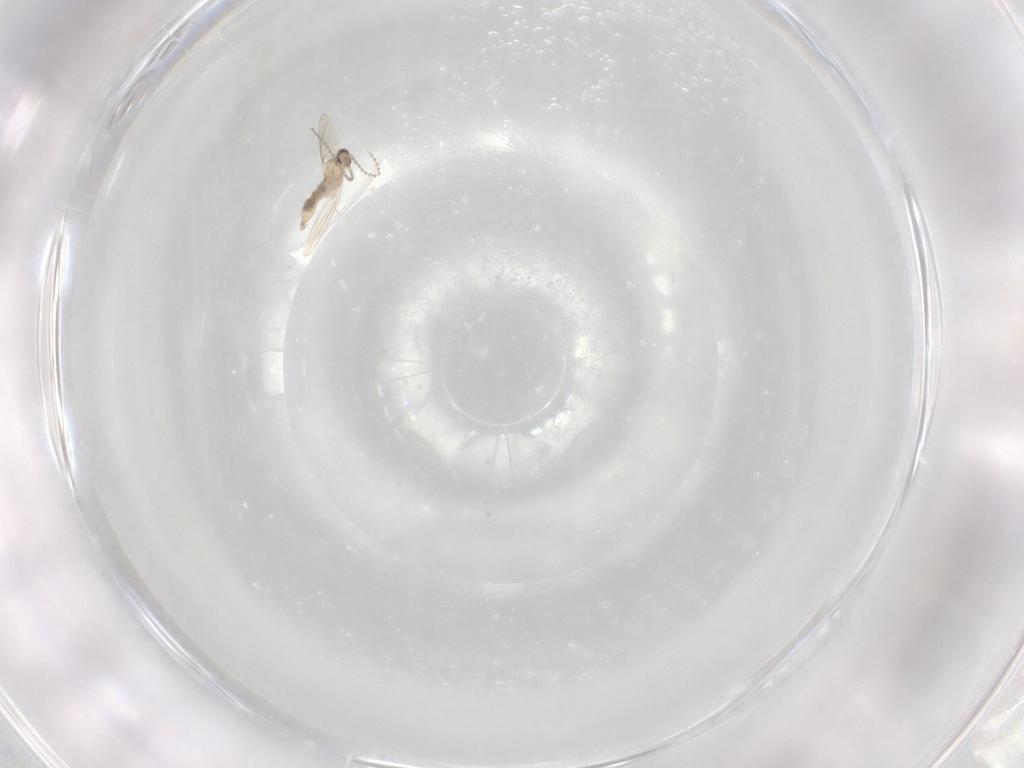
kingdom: Animalia
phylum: Arthropoda
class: Insecta
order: Diptera
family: Cecidomyiidae
